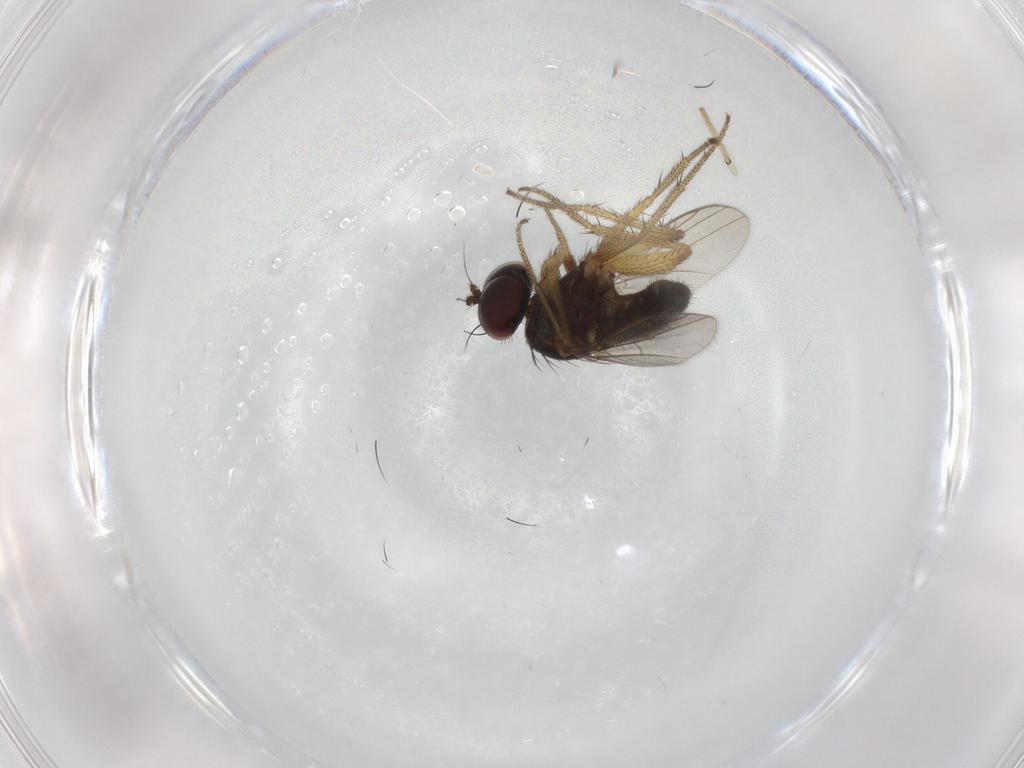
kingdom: Animalia
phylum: Arthropoda
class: Insecta
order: Diptera
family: Chironomidae
